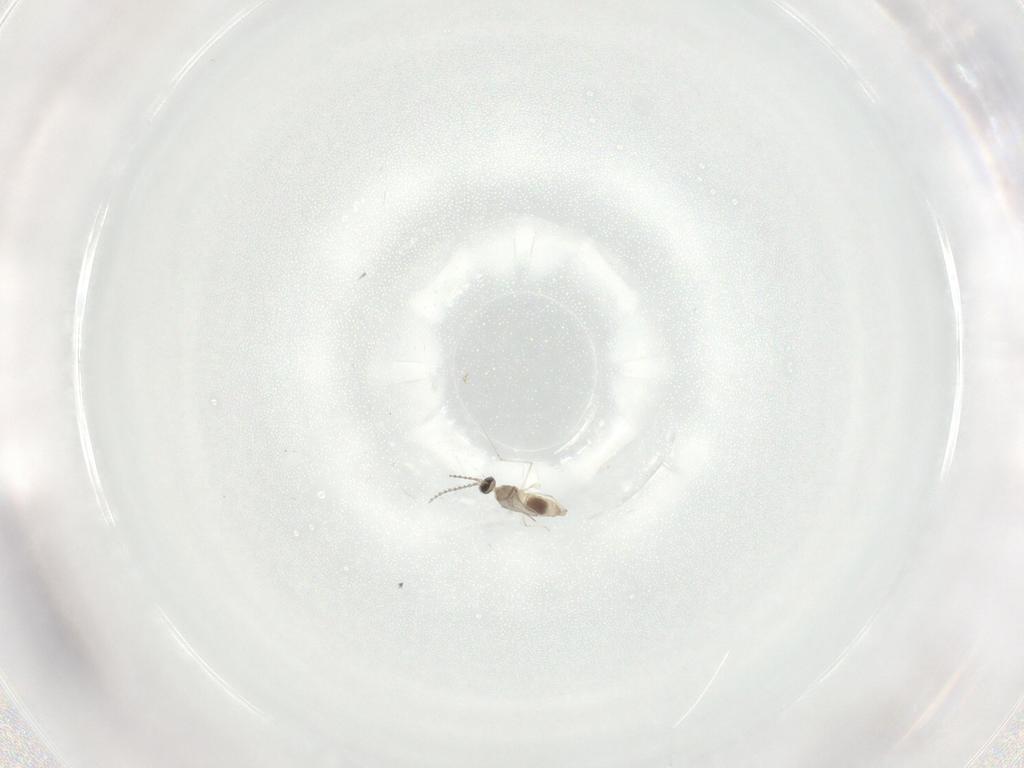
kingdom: Animalia
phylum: Arthropoda
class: Insecta
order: Diptera
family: Cecidomyiidae
